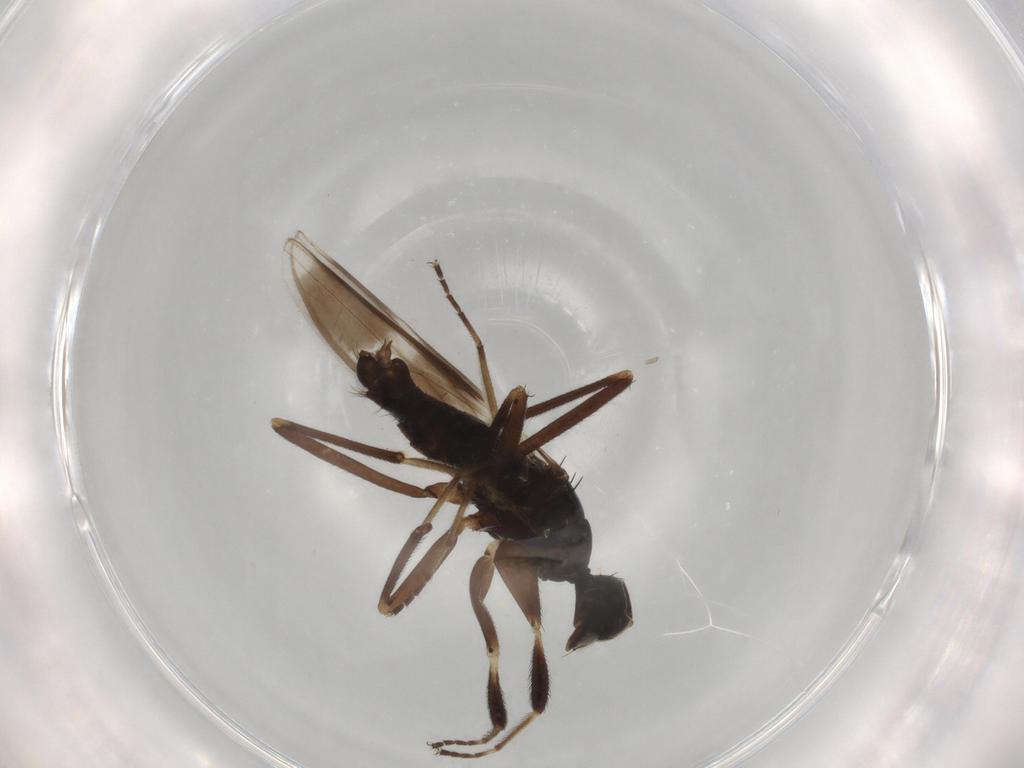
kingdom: Animalia
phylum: Arthropoda
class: Insecta
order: Diptera
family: Hybotidae
